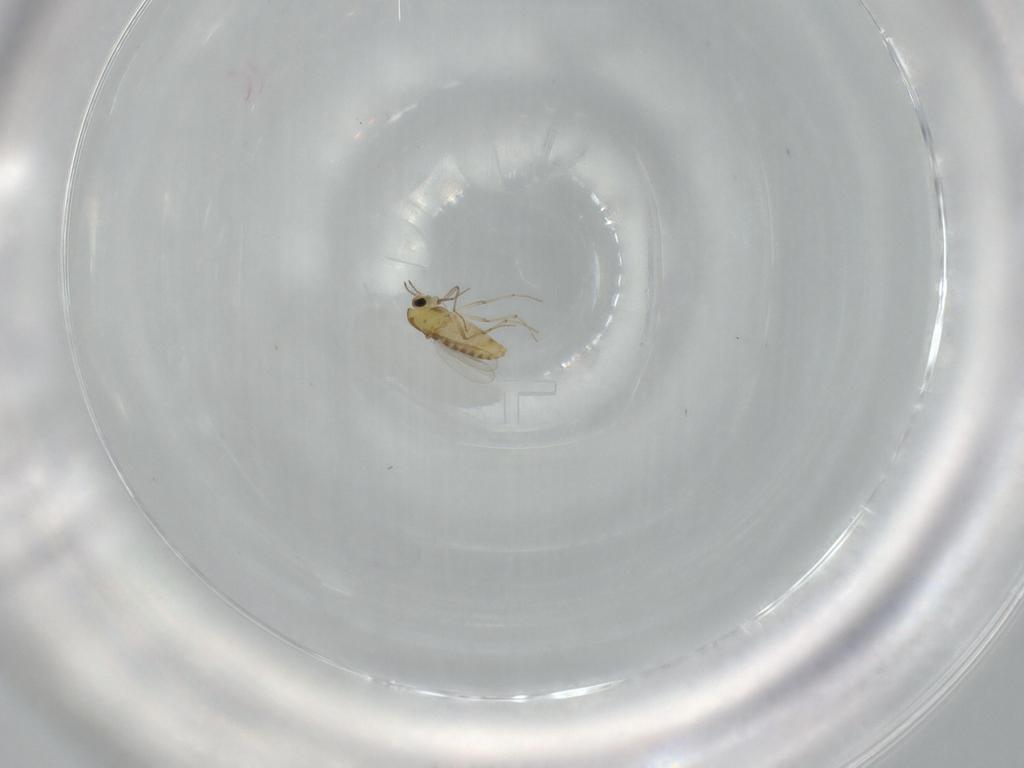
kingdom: Animalia
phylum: Arthropoda
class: Insecta
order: Diptera
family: Chironomidae
